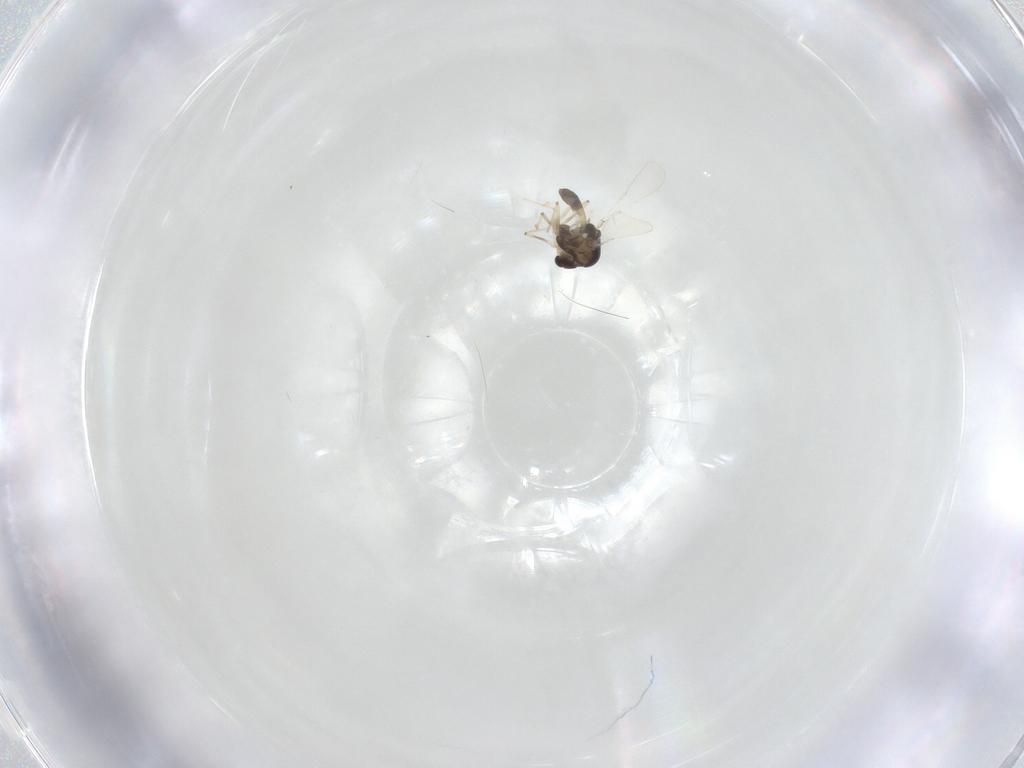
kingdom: Animalia
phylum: Arthropoda
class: Insecta
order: Diptera
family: Chironomidae
